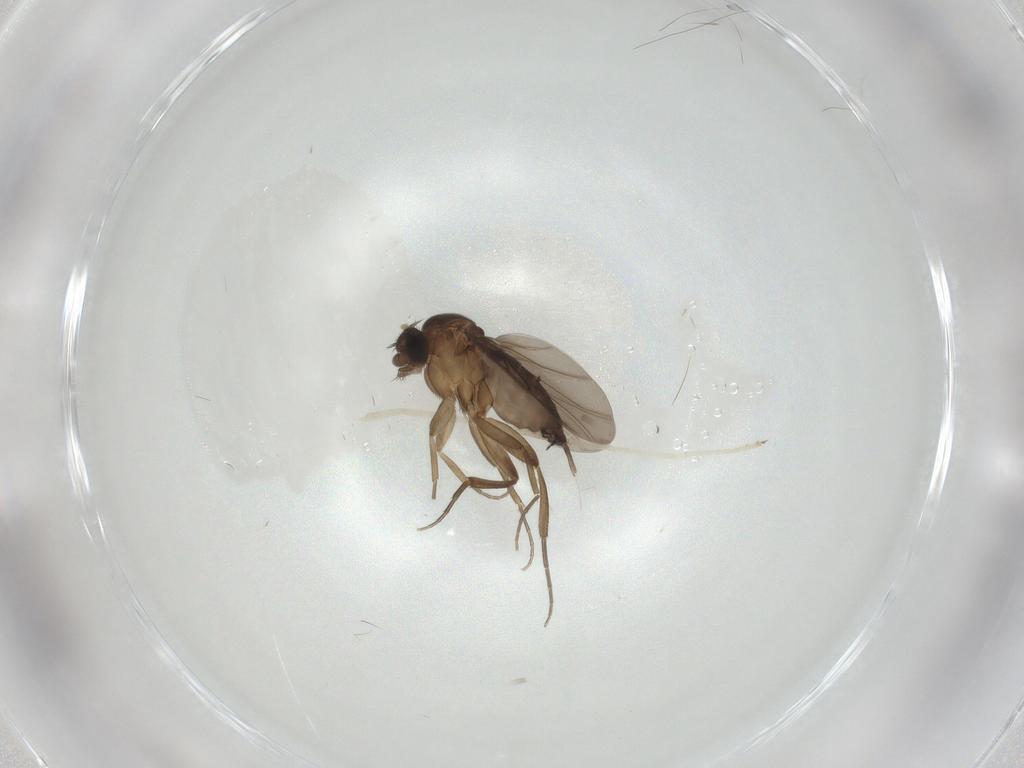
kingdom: Animalia
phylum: Arthropoda
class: Insecta
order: Diptera
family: Phoridae
